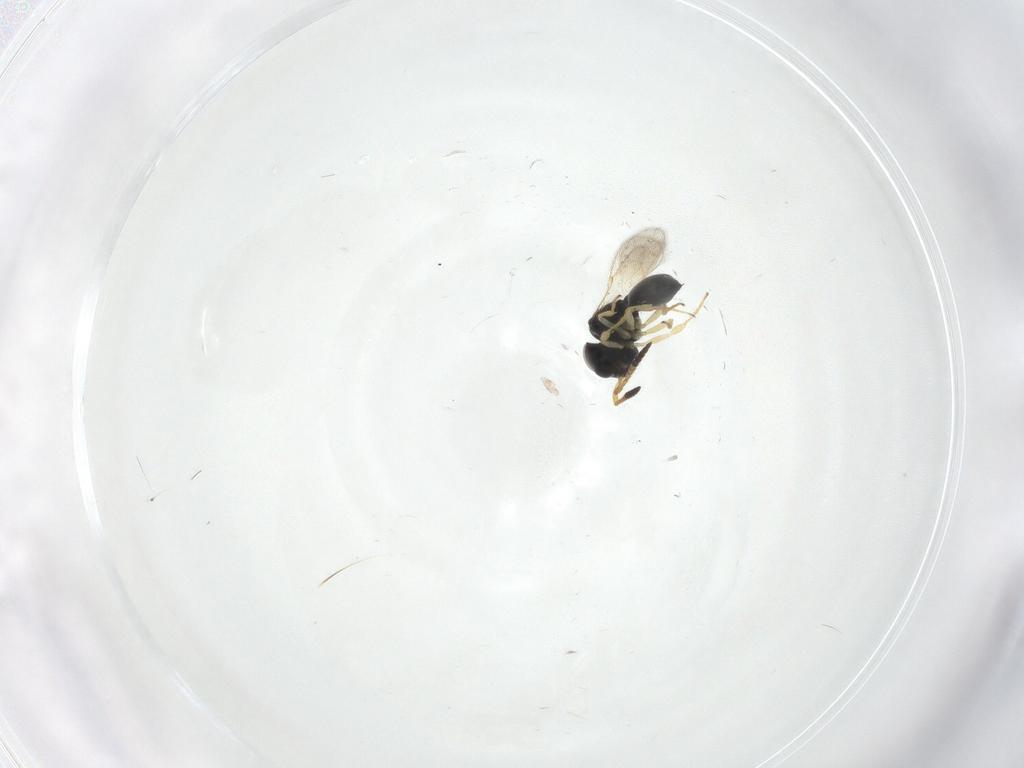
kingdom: Animalia
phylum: Arthropoda
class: Insecta
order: Hymenoptera
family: Scelionidae
